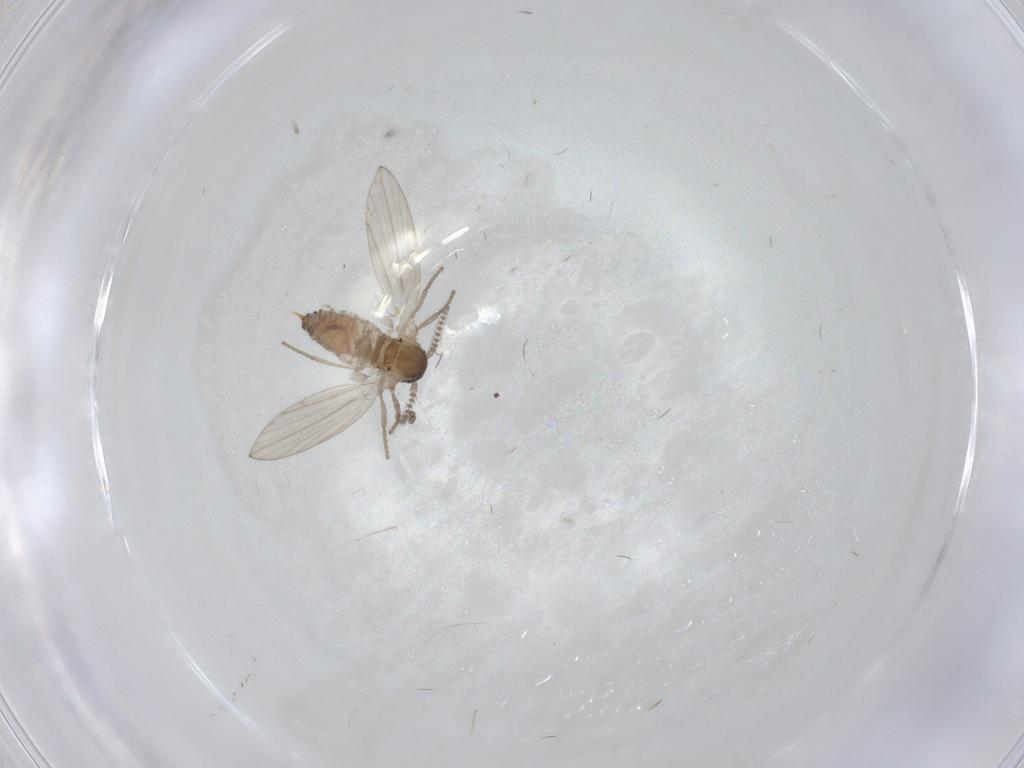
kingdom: Animalia
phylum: Arthropoda
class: Insecta
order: Diptera
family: Psychodidae
